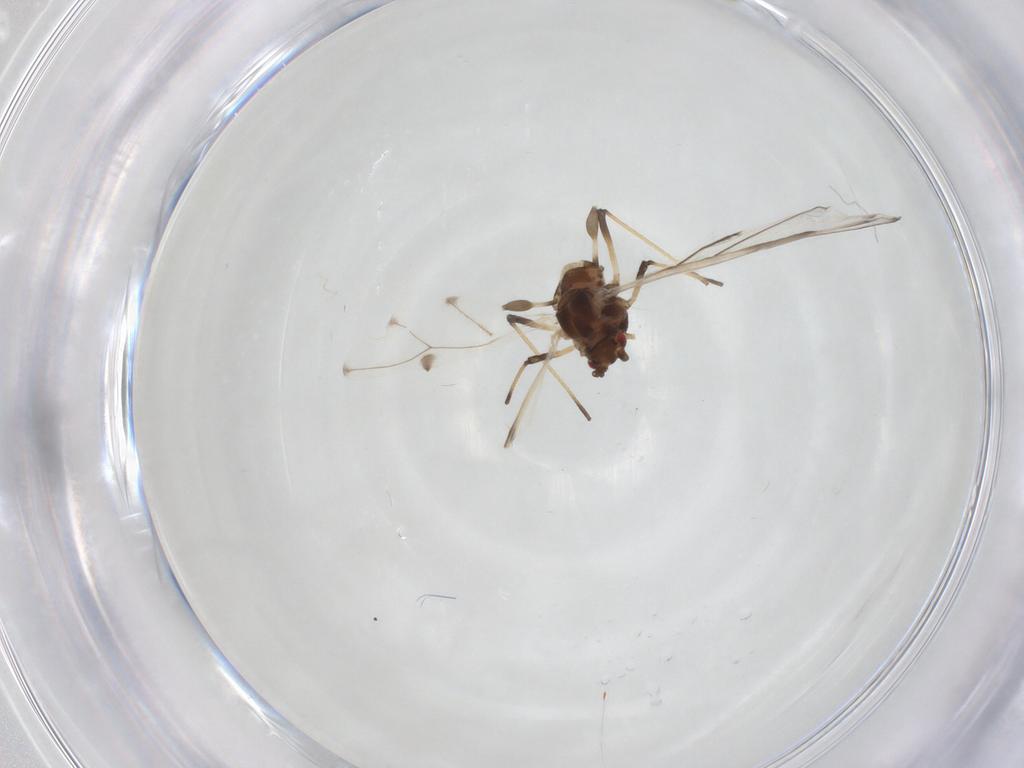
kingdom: Animalia
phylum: Arthropoda
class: Insecta
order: Hemiptera
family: Aphididae
